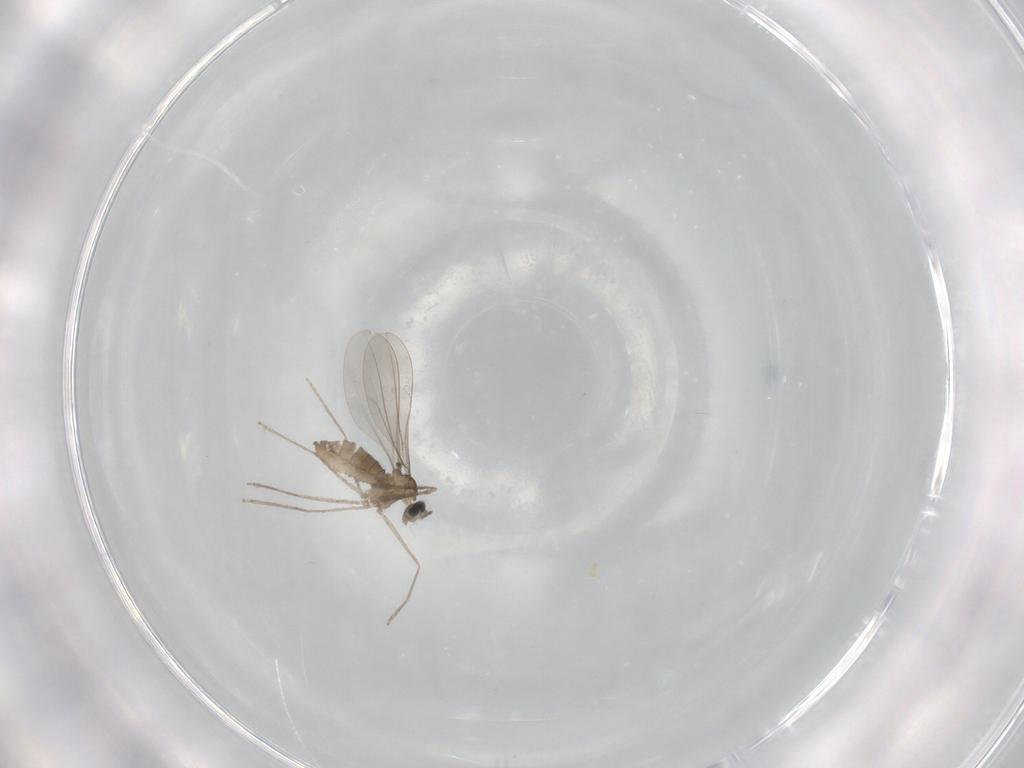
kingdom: Animalia
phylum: Arthropoda
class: Insecta
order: Diptera
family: Cecidomyiidae
